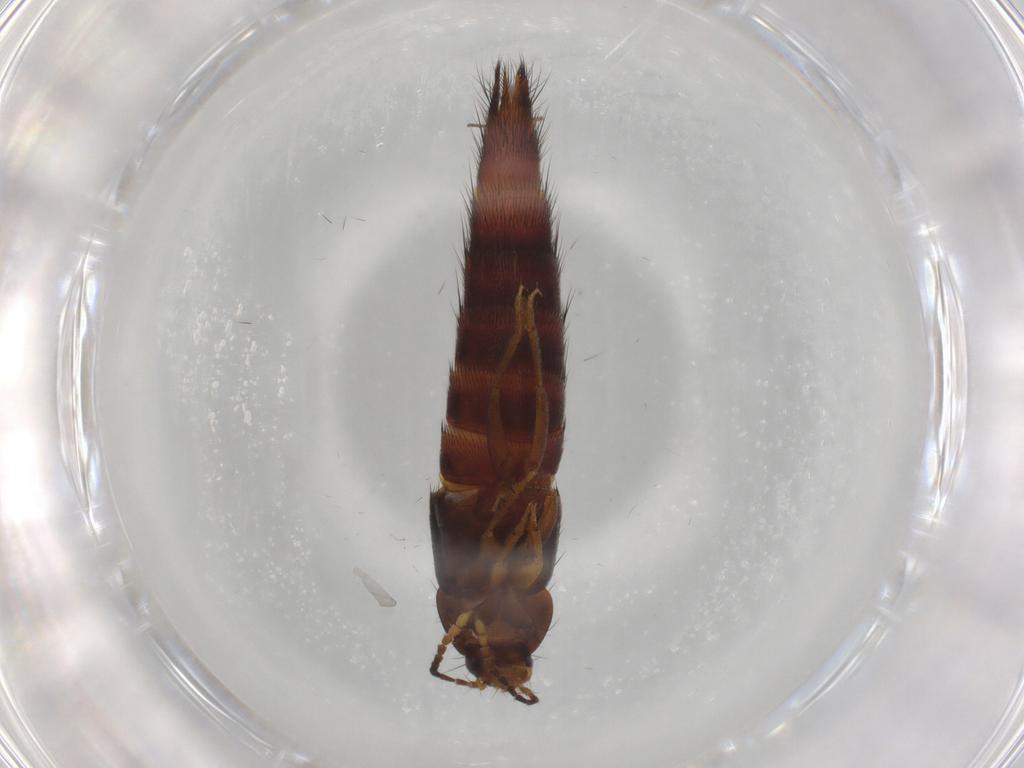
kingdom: Animalia
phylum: Arthropoda
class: Insecta
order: Coleoptera
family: Staphylinidae
